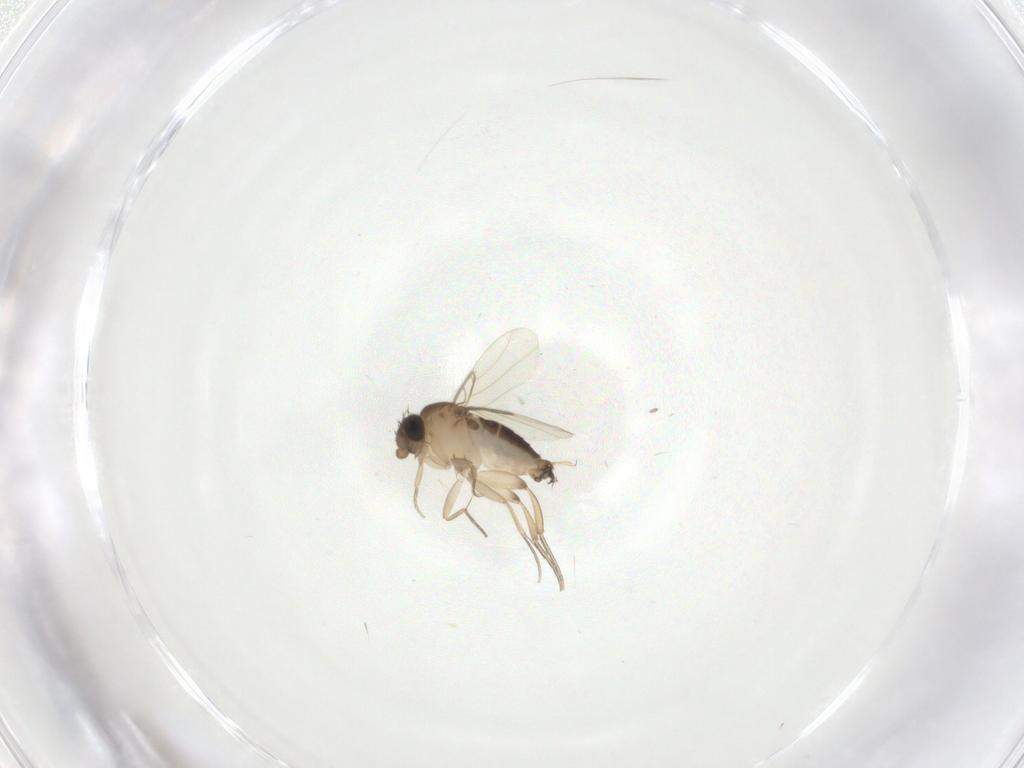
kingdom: Animalia
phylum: Arthropoda
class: Insecta
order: Diptera
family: Phoridae
